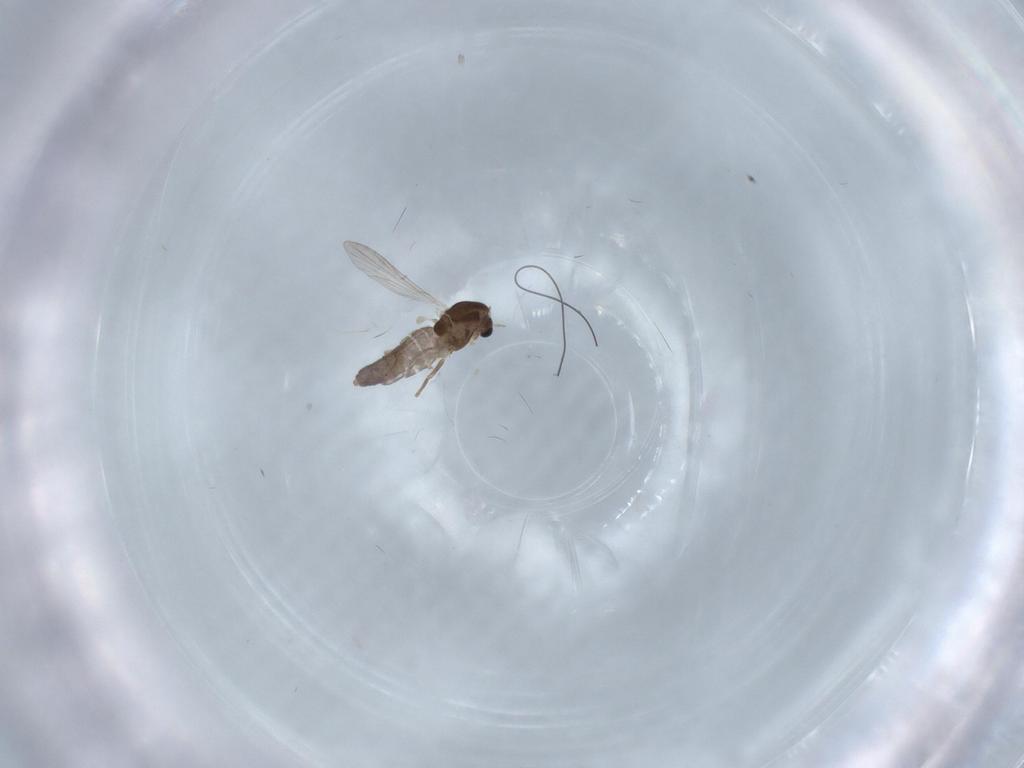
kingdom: Animalia
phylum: Arthropoda
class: Insecta
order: Diptera
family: Chironomidae
